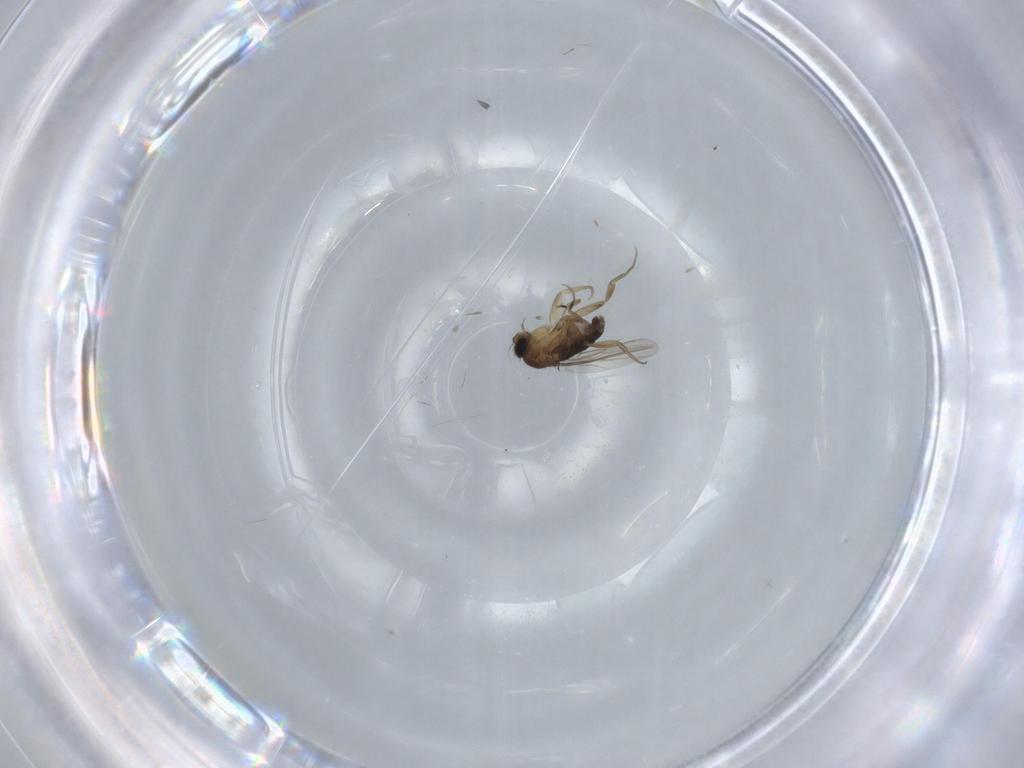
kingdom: Animalia
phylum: Arthropoda
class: Insecta
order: Diptera
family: Phoridae
